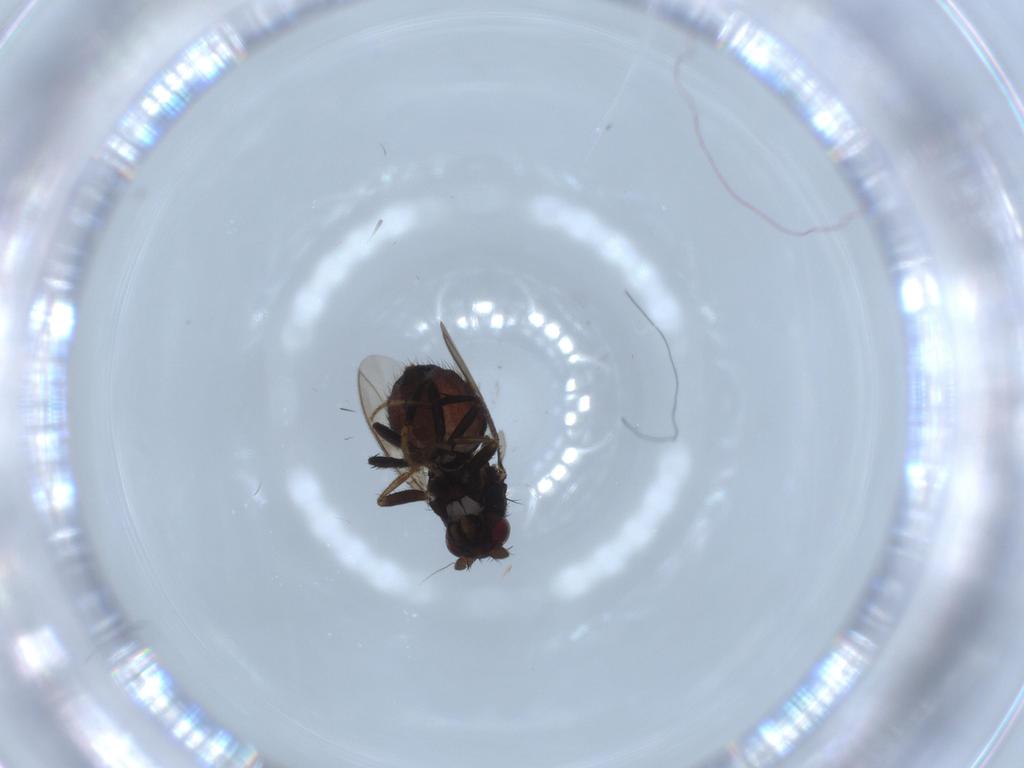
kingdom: Animalia
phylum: Arthropoda
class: Insecta
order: Diptera
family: Sphaeroceridae
